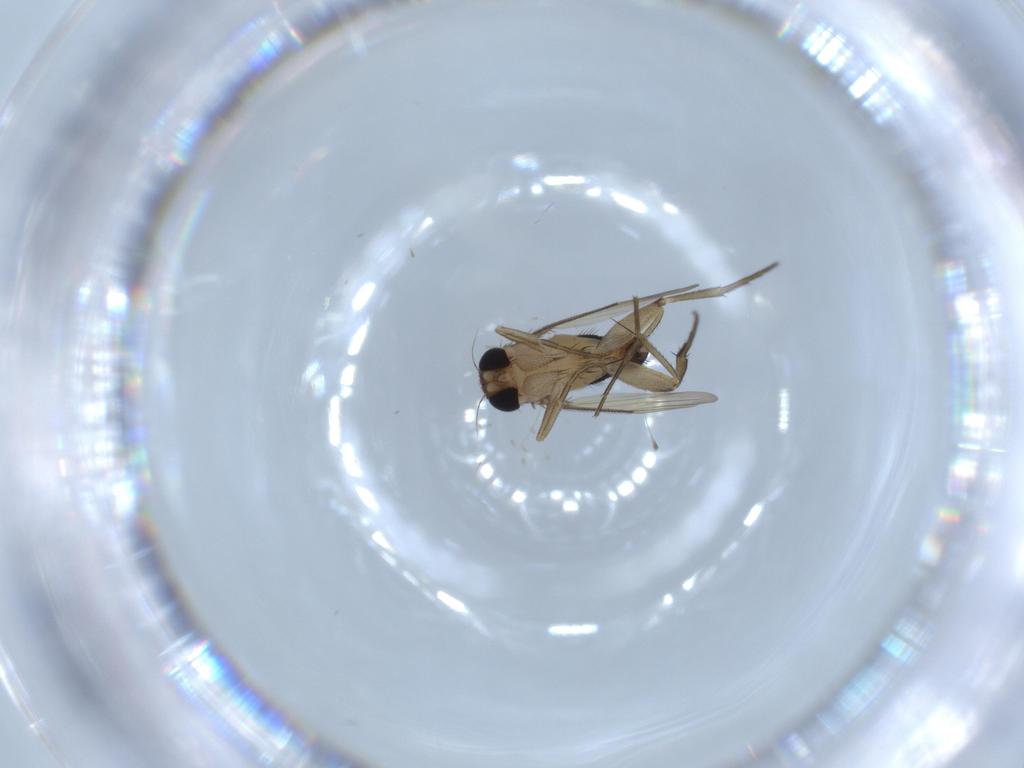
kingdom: Animalia
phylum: Arthropoda
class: Insecta
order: Diptera
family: Phoridae
